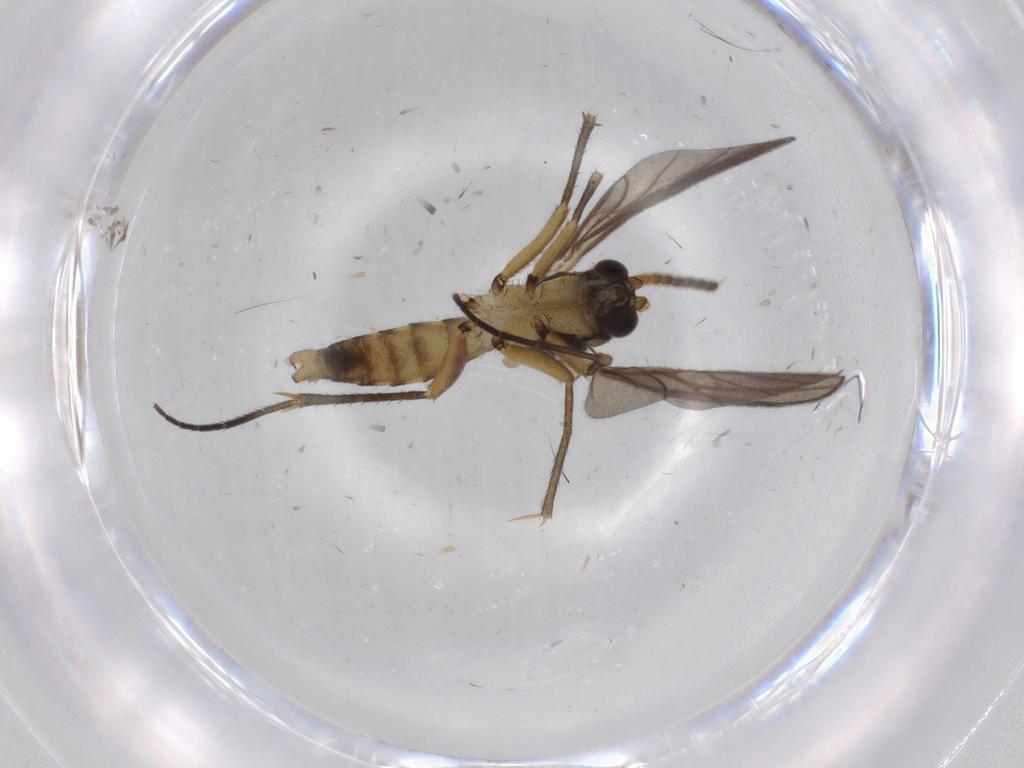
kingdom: Animalia
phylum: Arthropoda
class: Insecta
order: Diptera
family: Cecidomyiidae
